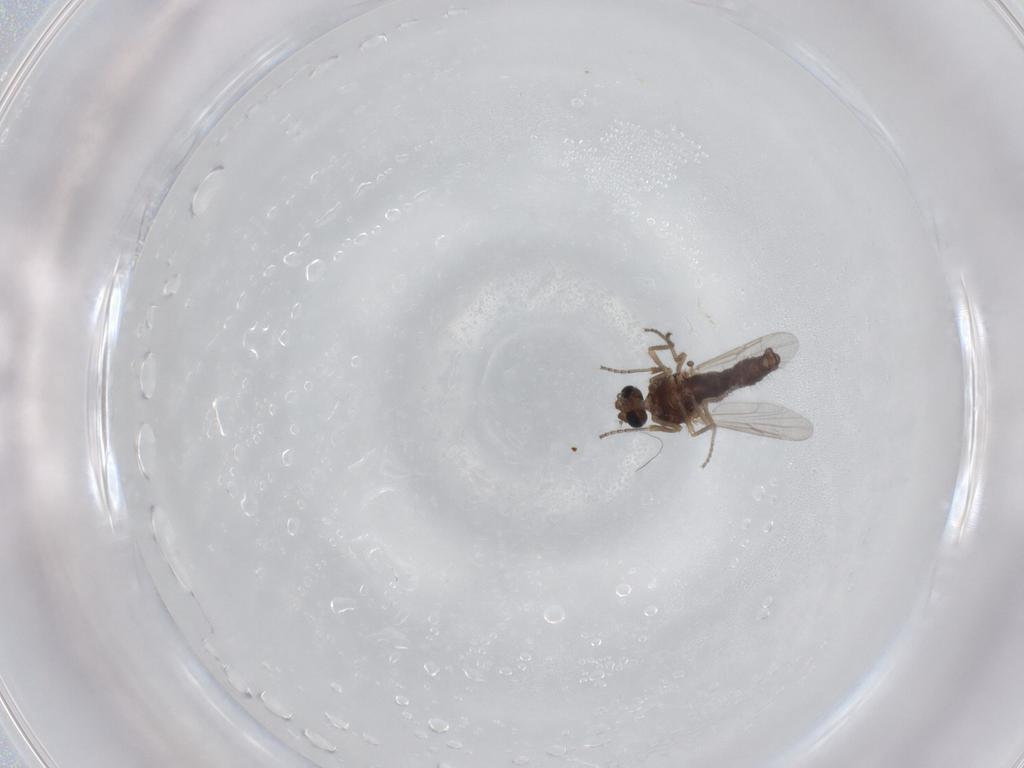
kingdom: Animalia
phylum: Arthropoda
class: Insecta
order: Diptera
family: Ceratopogonidae
